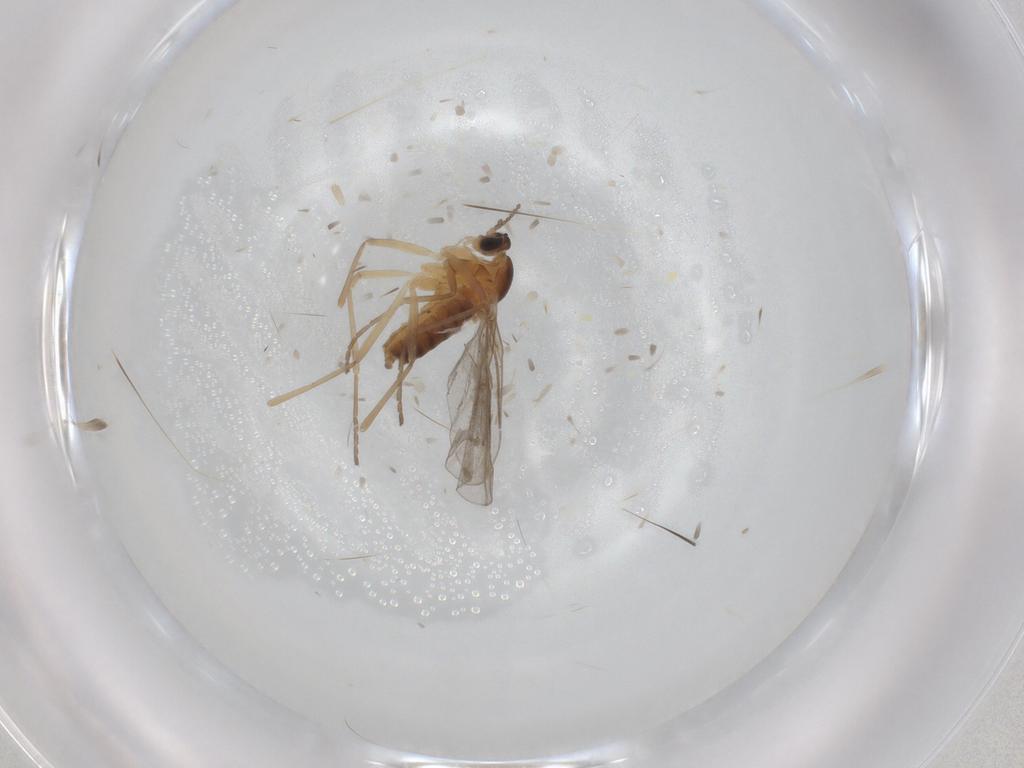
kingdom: Animalia
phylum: Arthropoda
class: Insecta
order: Diptera
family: Cecidomyiidae
